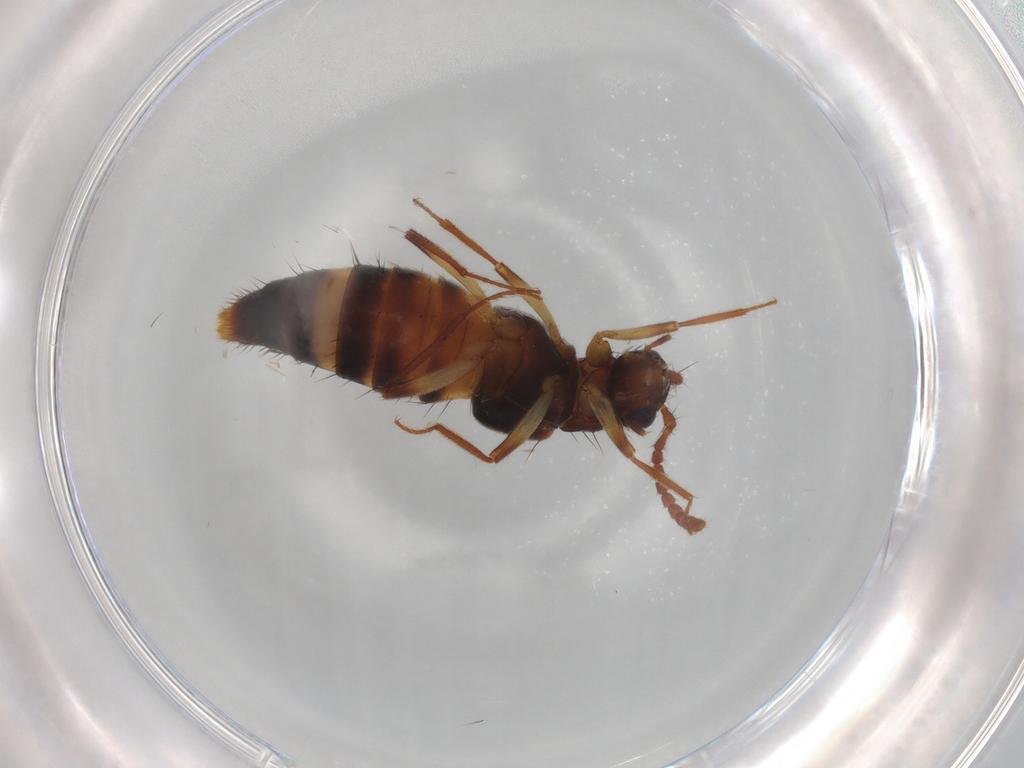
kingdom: Animalia
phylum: Arthropoda
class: Insecta
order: Coleoptera
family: Staphylinidae
